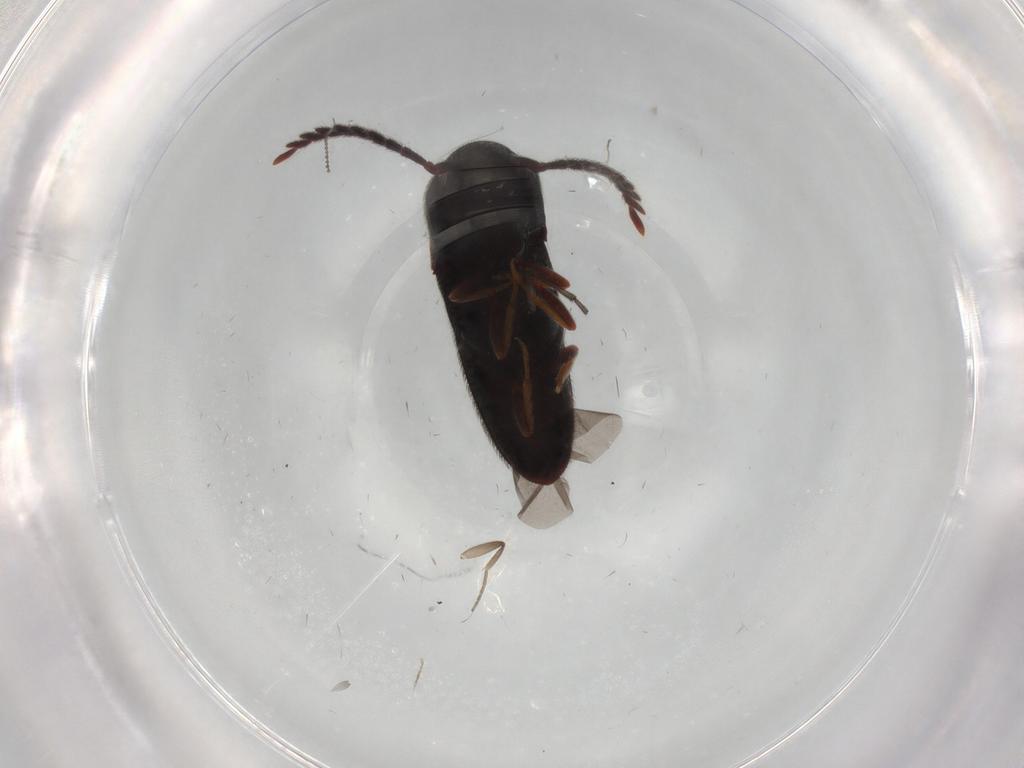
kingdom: Animalia
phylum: Arthropoda
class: Insecta
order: Coleoptera
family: Eucnemidae
